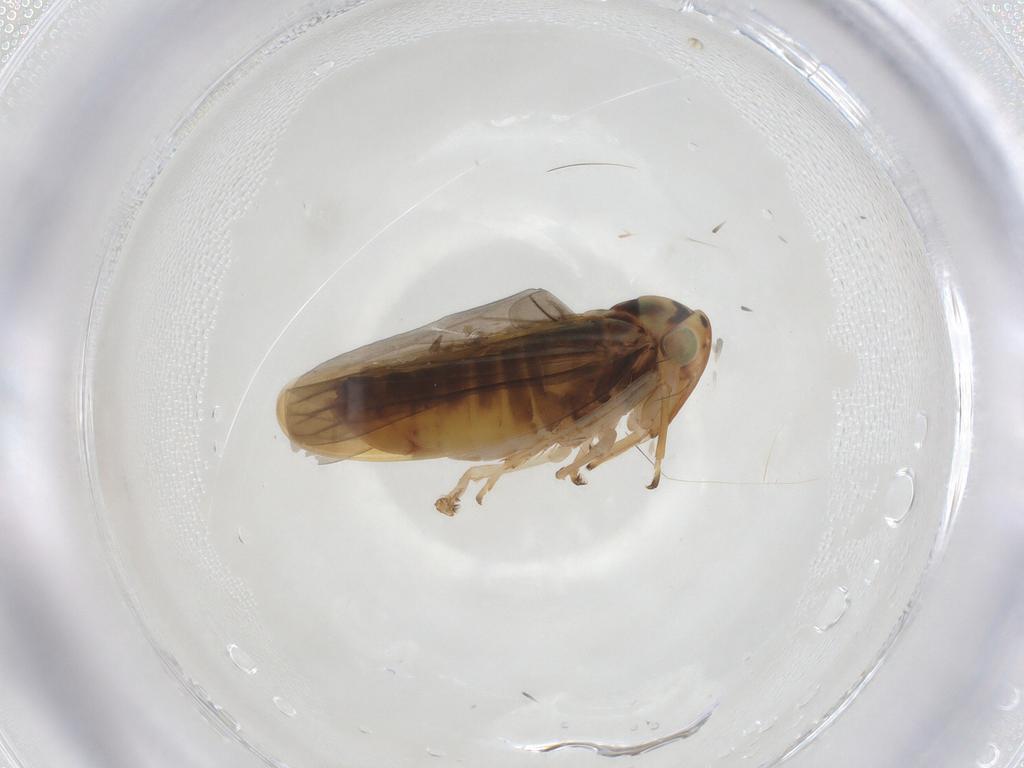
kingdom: Animalia
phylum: Arthropoda
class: Insecta
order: Hemiptera
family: Cicadellidae
